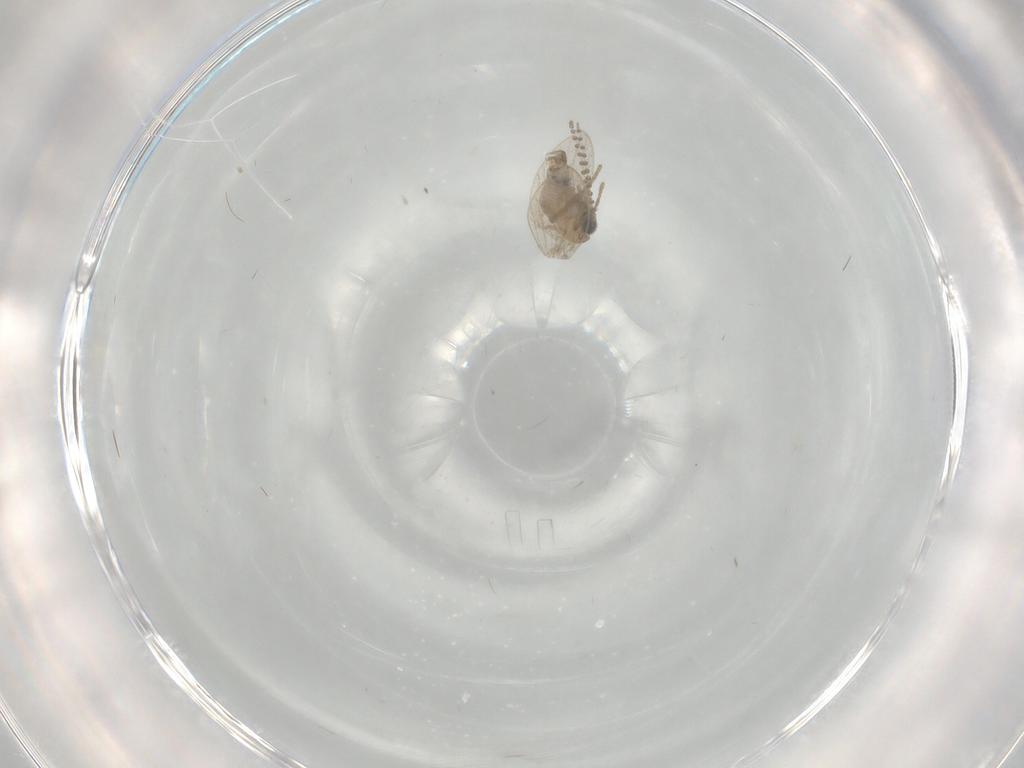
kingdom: Animalia
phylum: Arthropoda
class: Insecta
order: Diptera
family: Psychodidae
